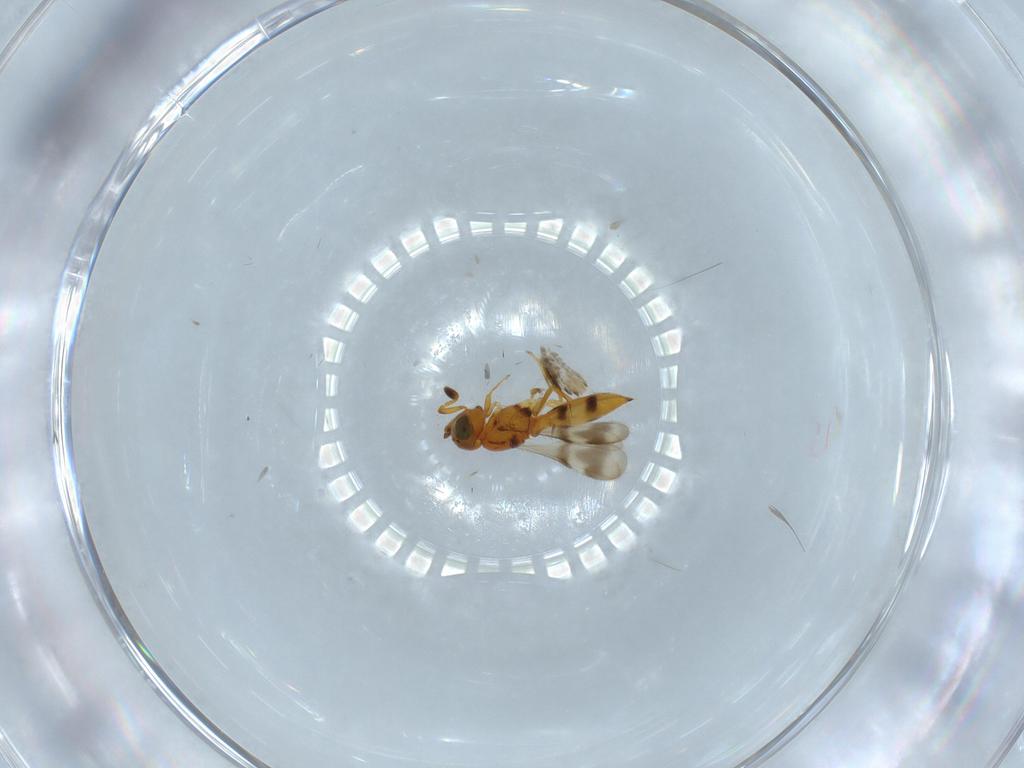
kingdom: Animalia
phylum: Arthropoda
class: Insecta
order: Hymenoptera
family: Scelionidae
